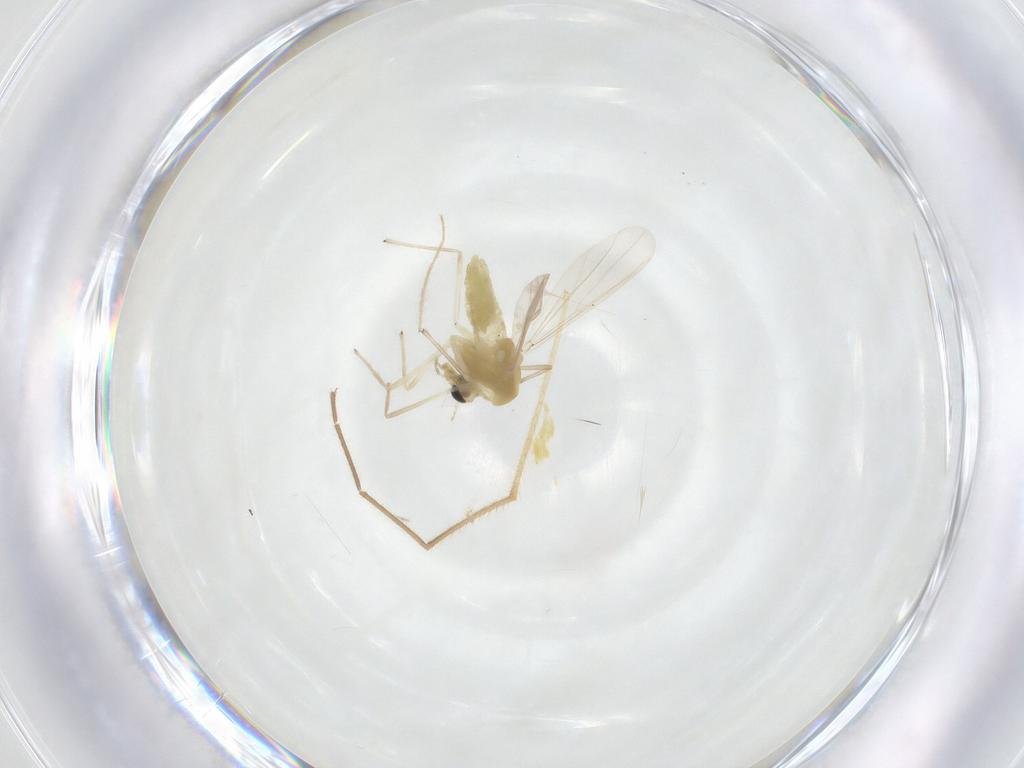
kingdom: Animalia
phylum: Arthropoda
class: Insecta
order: Diptera
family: Chironomidae
